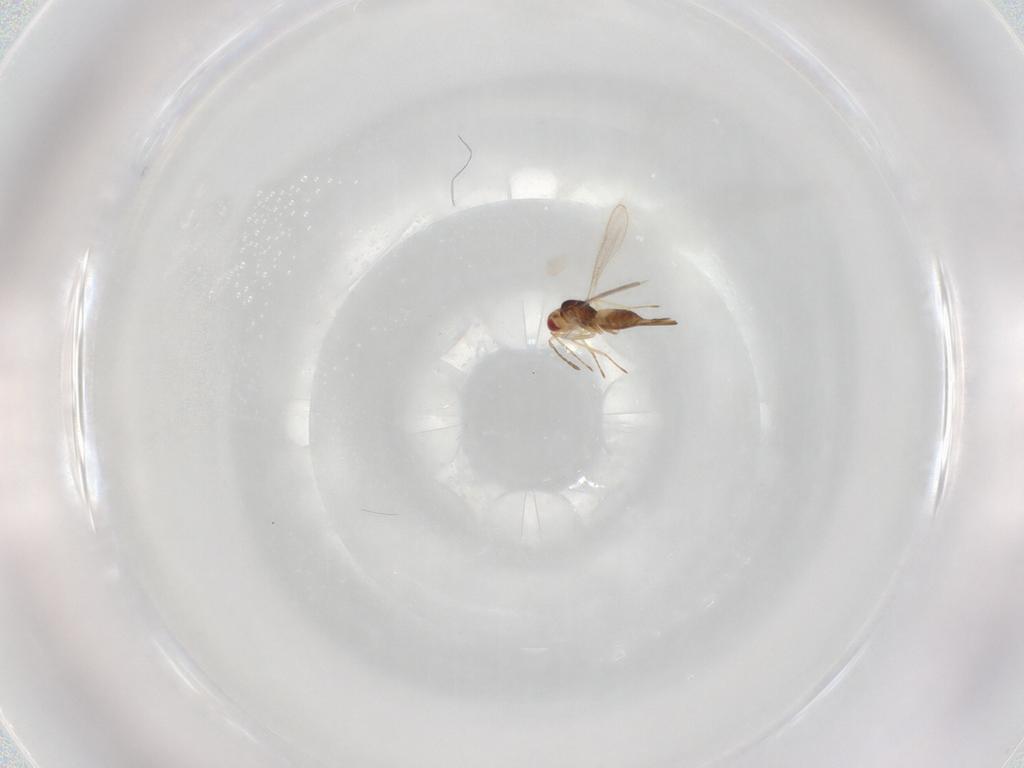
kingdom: Animalia
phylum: Arthropoda
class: Insecta
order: Hymenoptera
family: Eulophidae
